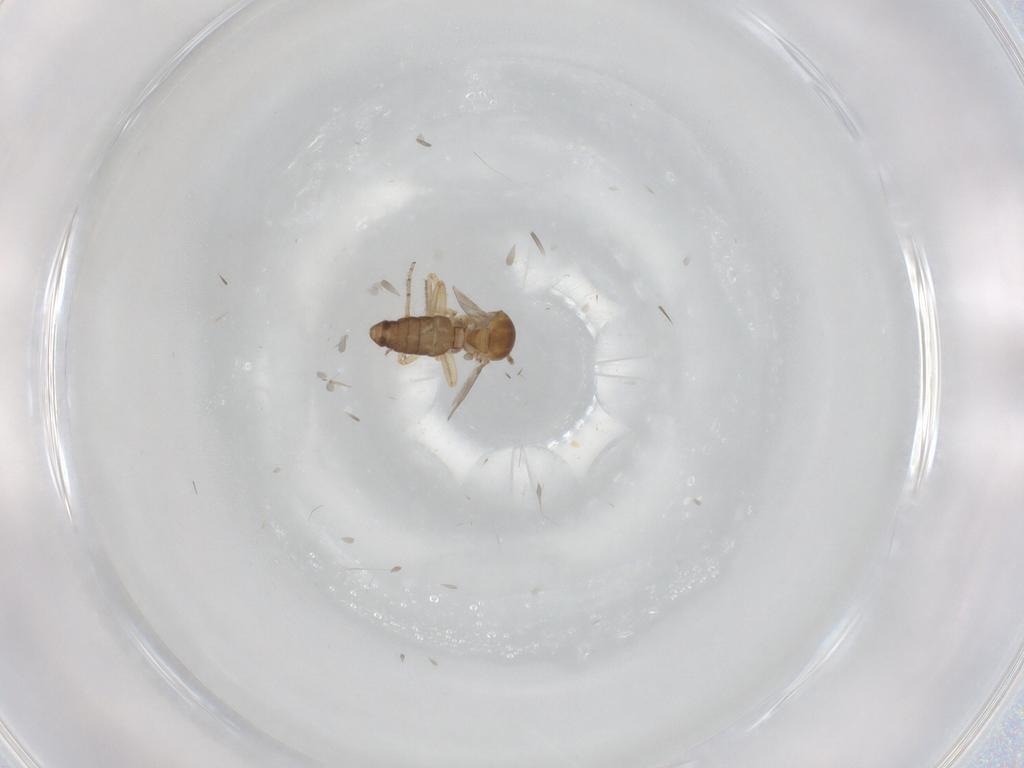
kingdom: Animalia
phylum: Arthropoda
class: Insecta
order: Diptera
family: Ceratopogonidae
